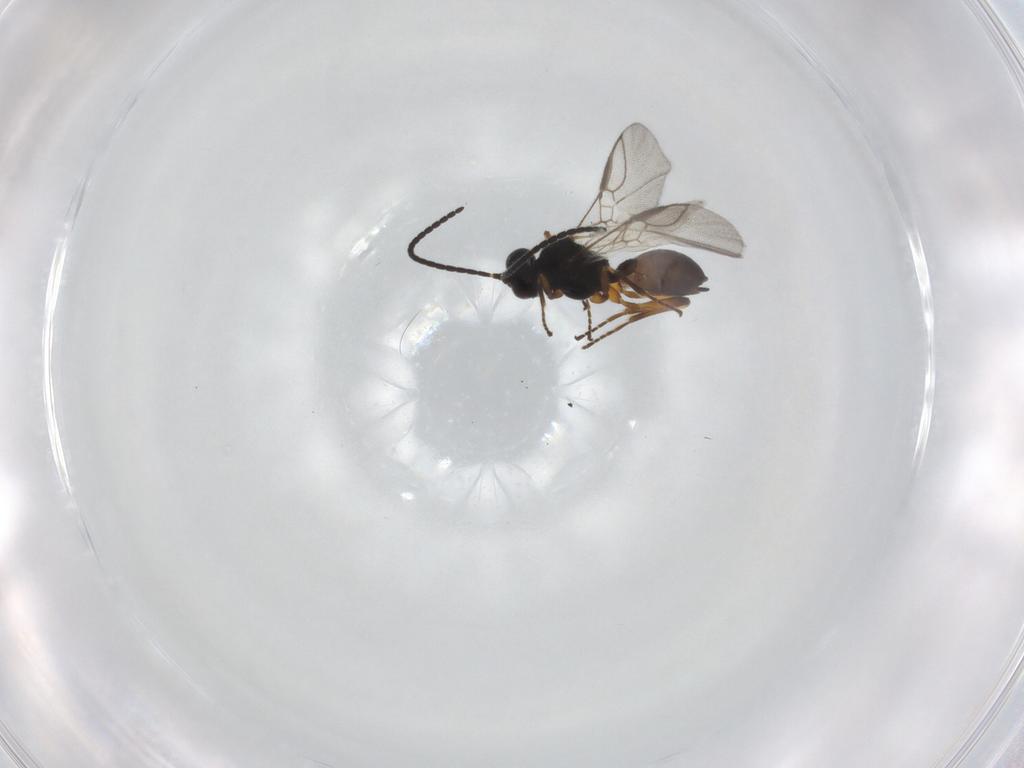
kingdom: Animalia
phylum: Arthropoda
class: Insecta
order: Hymenoptera
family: Braconidae
